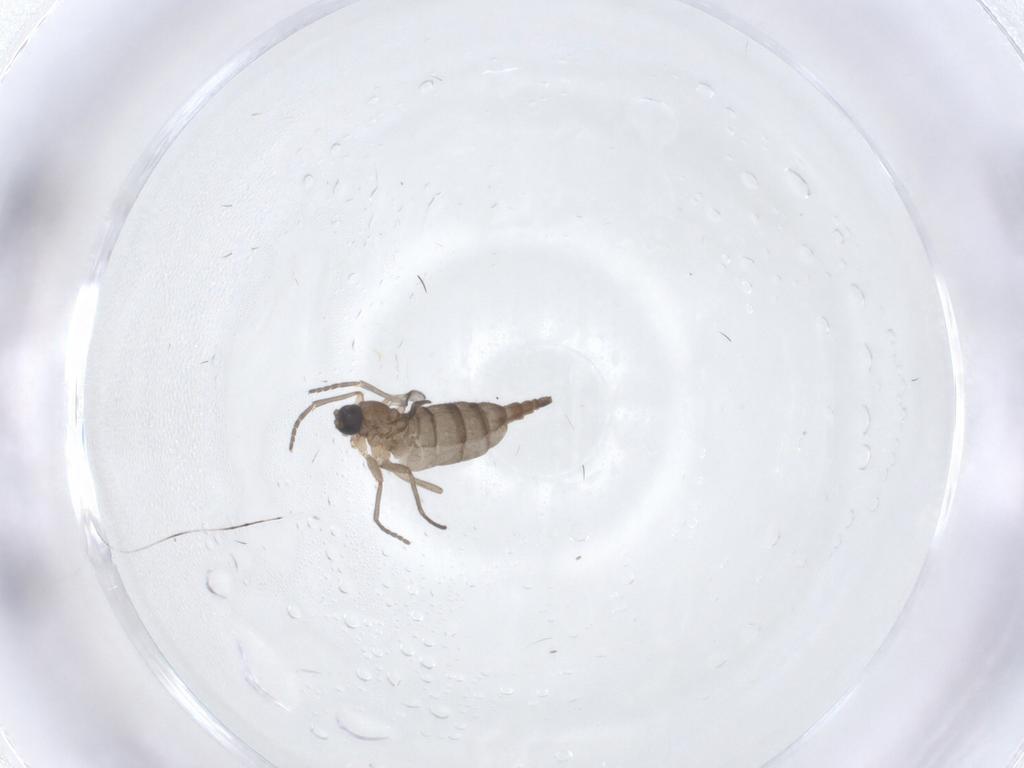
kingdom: Animalia
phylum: Arthropoda
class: Insecta
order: Diptera
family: Sciaridae
